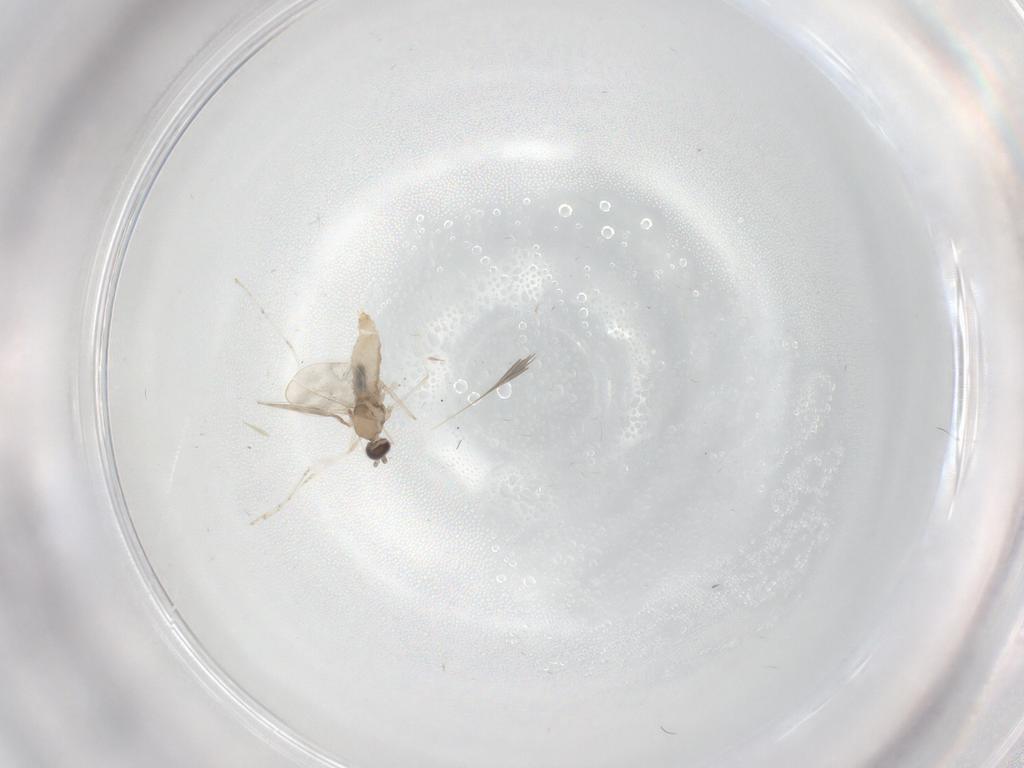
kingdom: Animalia
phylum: Arthropoda
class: Insecta
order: Diptera
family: Cecidomyiidae
